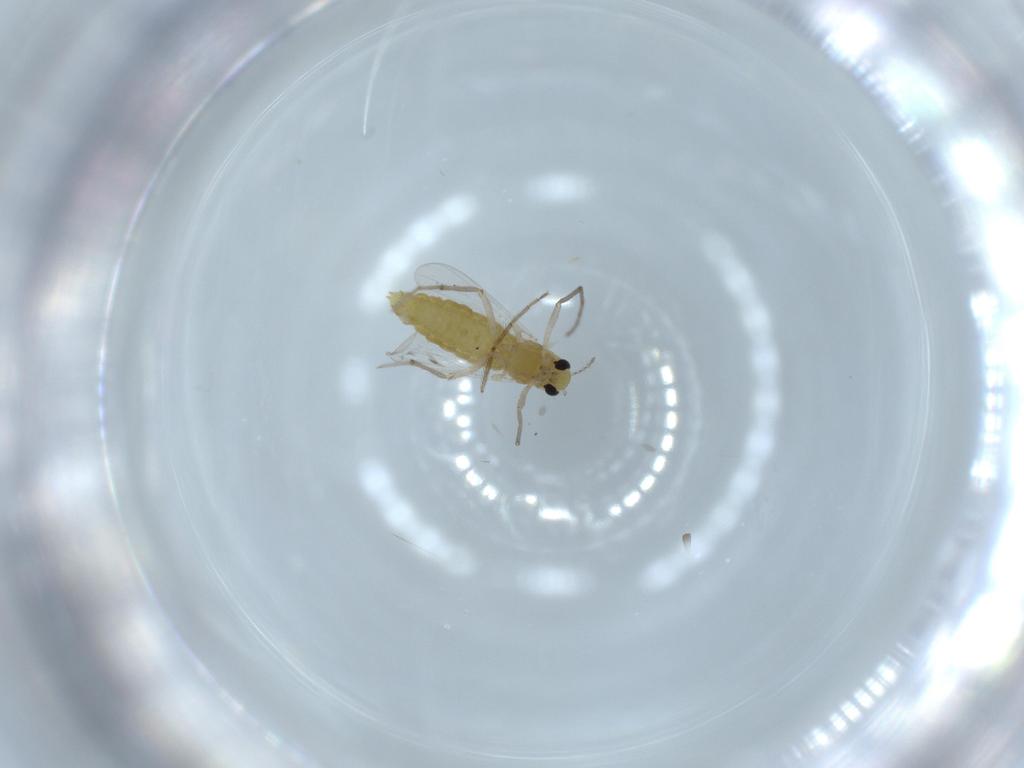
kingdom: Animalia
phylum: Arthropoda
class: Insecta
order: Diptera
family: Chironomidae
